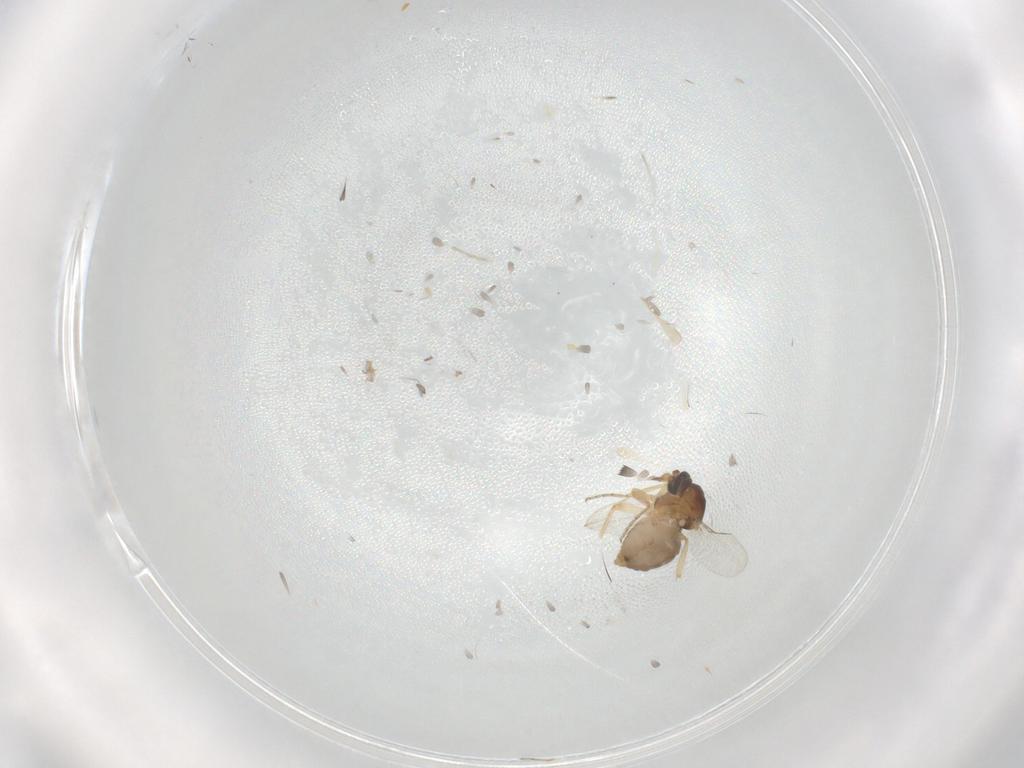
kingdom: Animalia
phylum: Arthropoda
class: Insecta
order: Diptera
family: Ceratopogonidae
